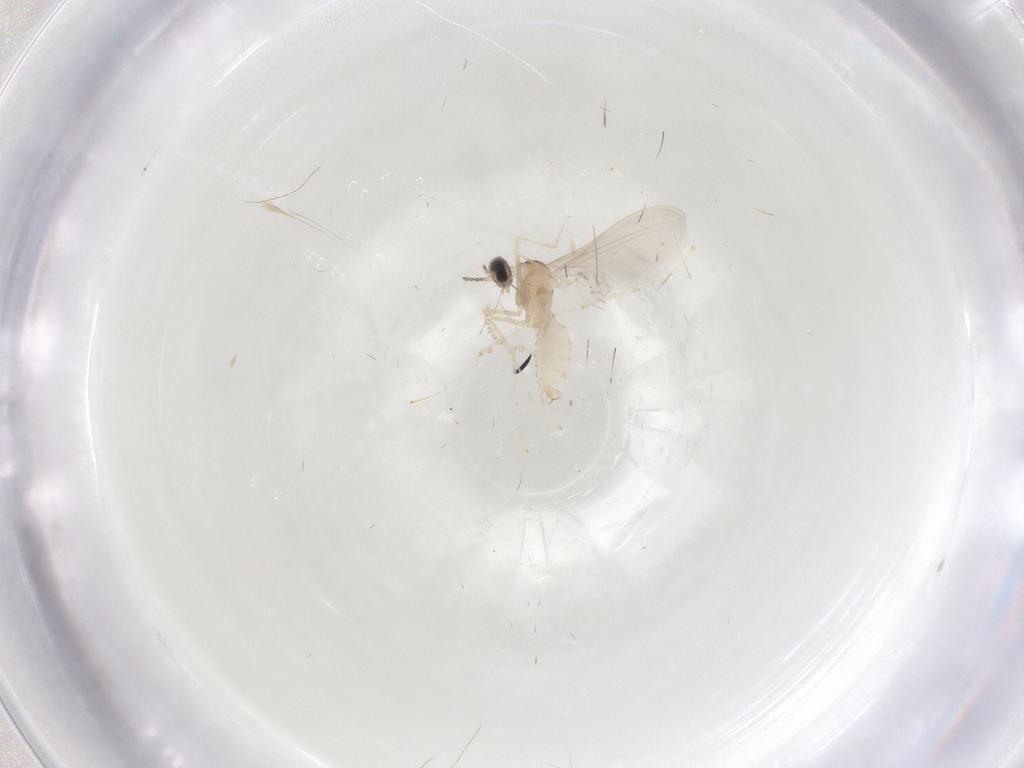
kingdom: Animalia
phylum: Arthropoda
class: Insecta
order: Diptera
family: Cecidomyiidae
